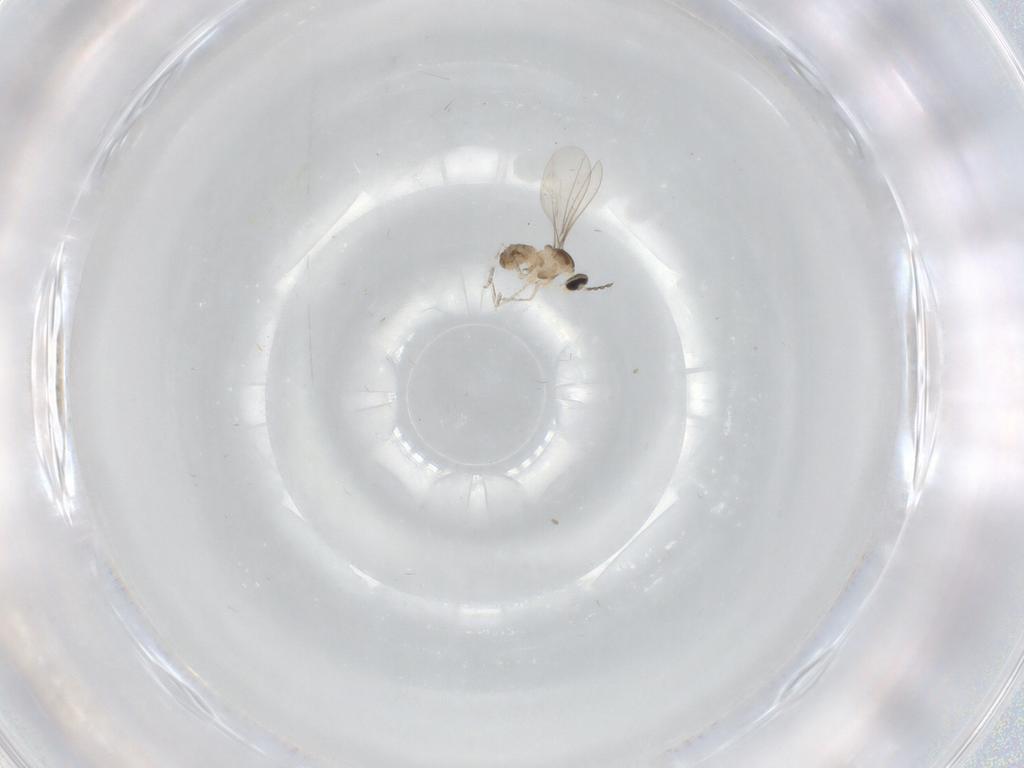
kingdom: Animalia
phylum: Arthropoda
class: Insecta
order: Diptera
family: Cecidomyiidae
